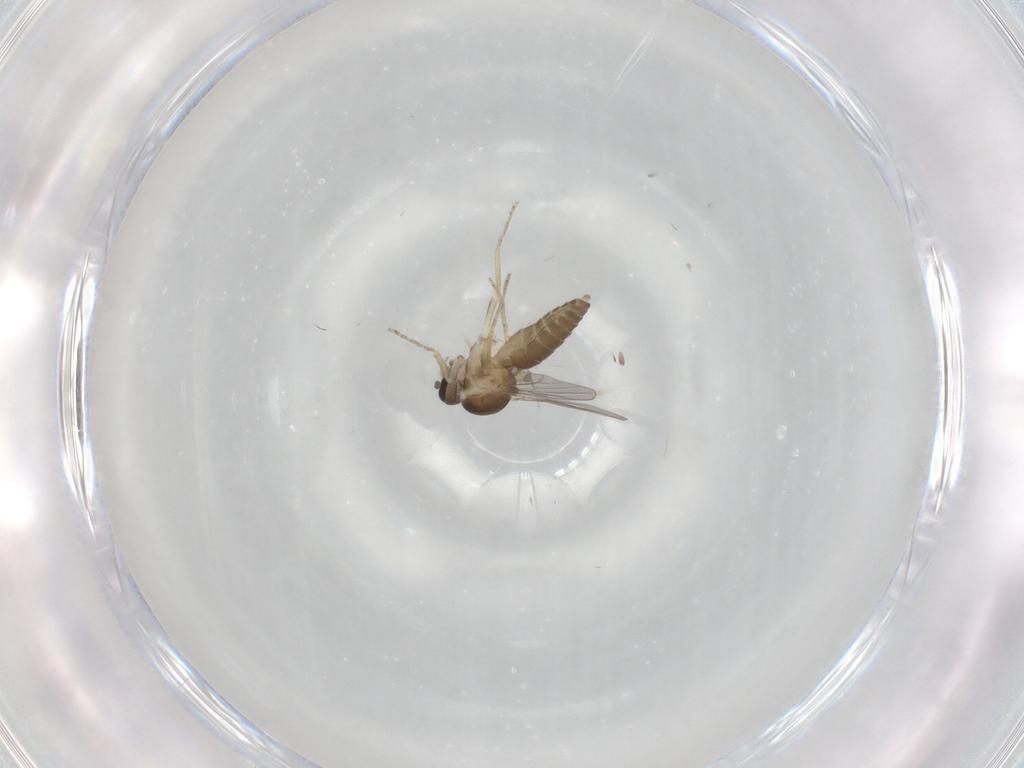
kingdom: Animalia
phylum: Arthropoda
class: Insecta
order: Diptera
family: Ceratopogonidae
